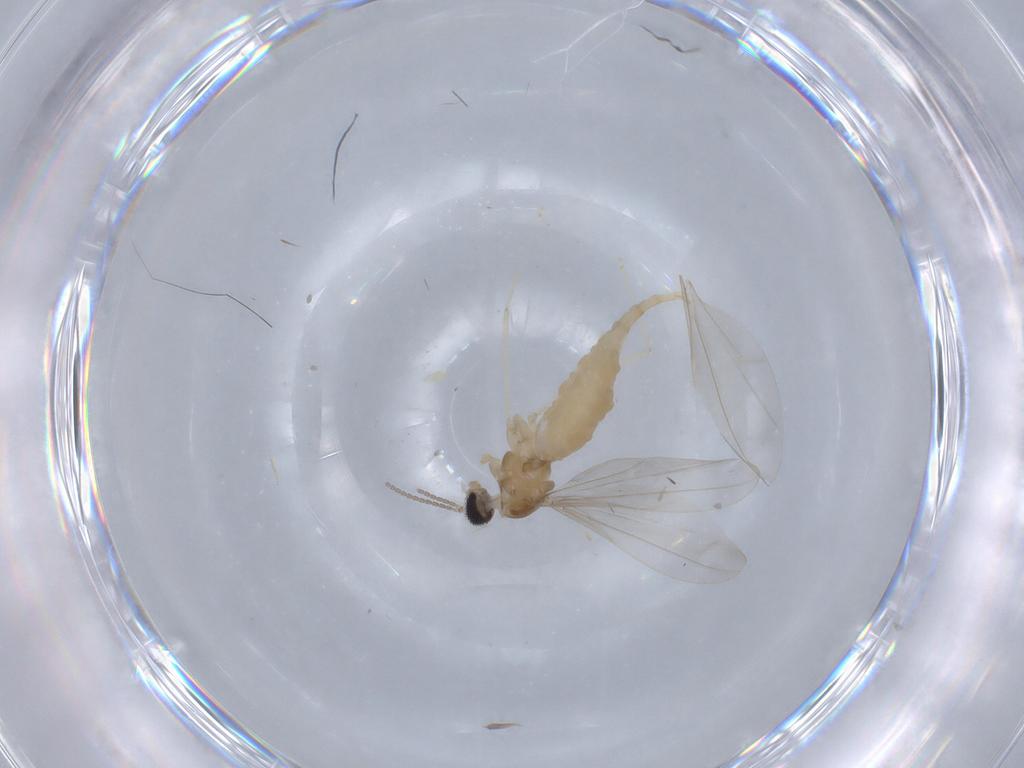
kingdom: Animalia
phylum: Arthropoda
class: Insecta
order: Diptera
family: Cecidomyiidae
